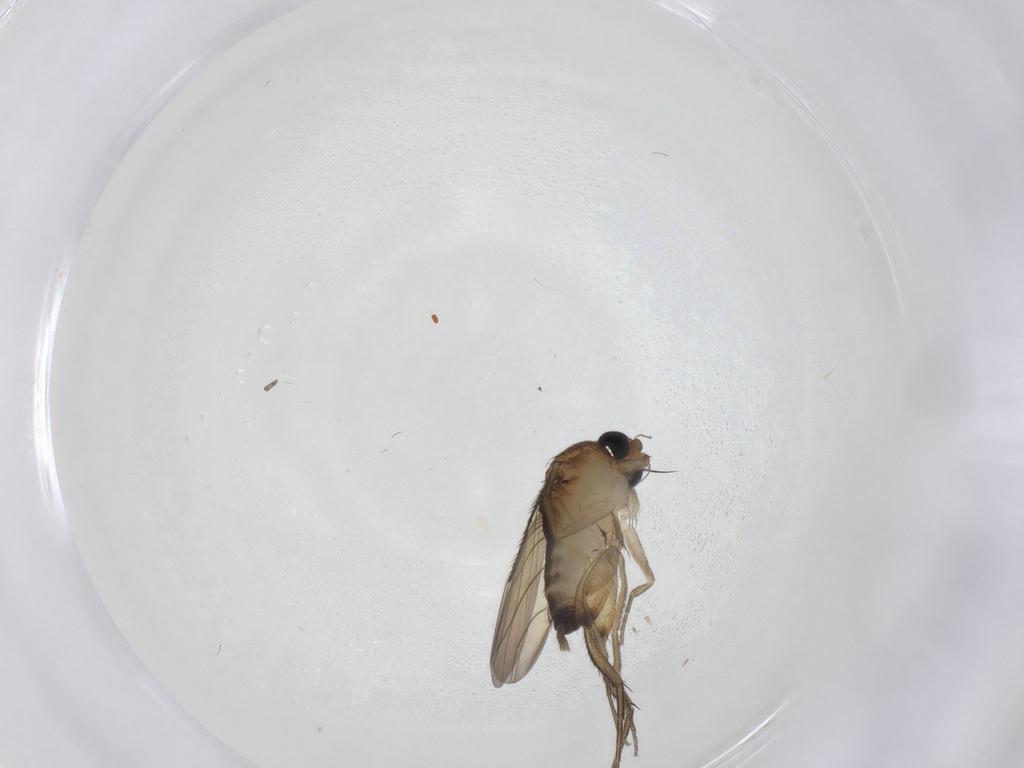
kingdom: Animalia
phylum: Arthropoda
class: Insecta
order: Diptera
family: Phoridae
